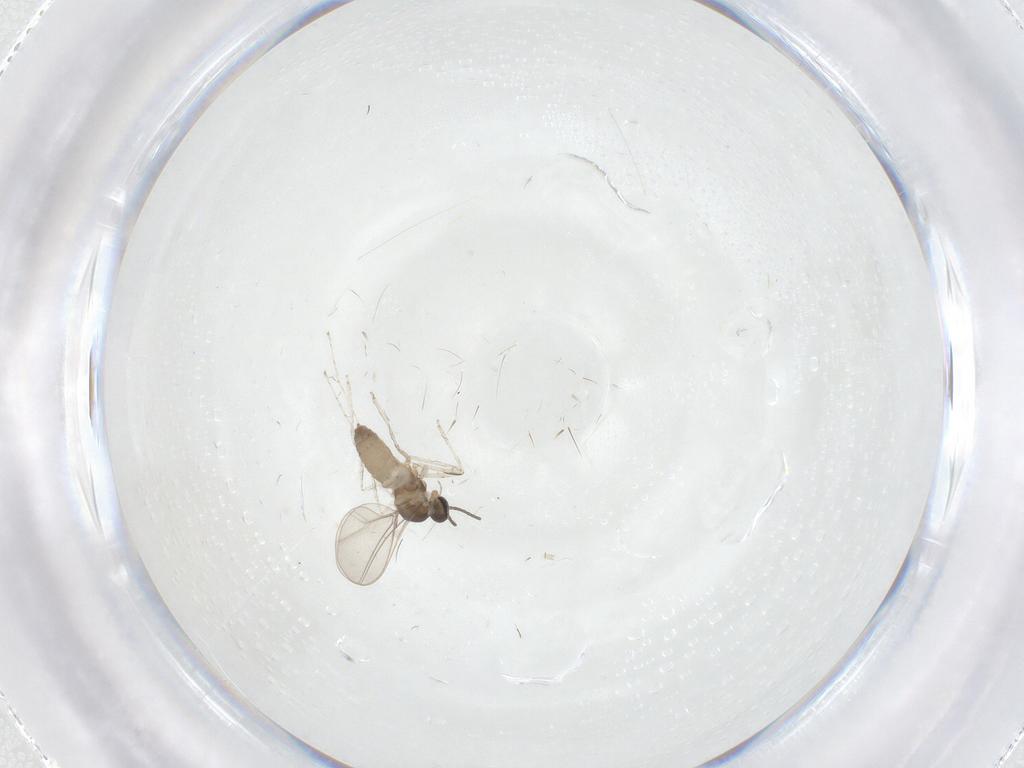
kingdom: Animalia
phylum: Arthropoda
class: Insecta
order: Diptera
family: Cecidomyiidae
